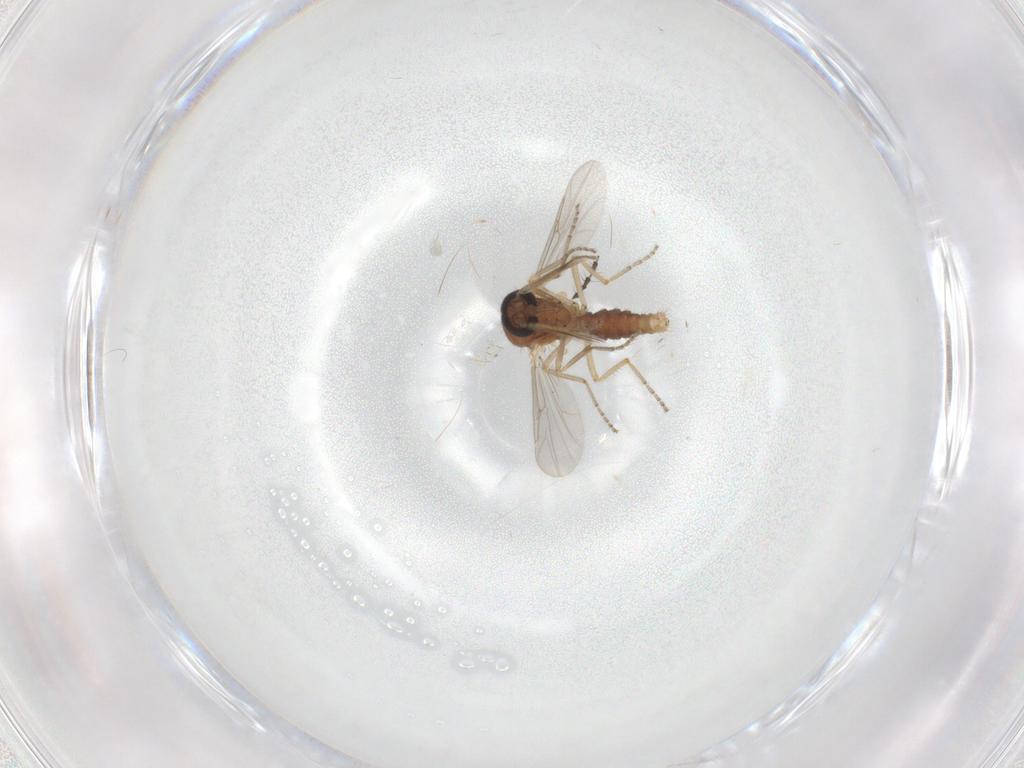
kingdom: Animalia
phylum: Arthropoda
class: Insecta
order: Diptera
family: Ceratopogonidae
